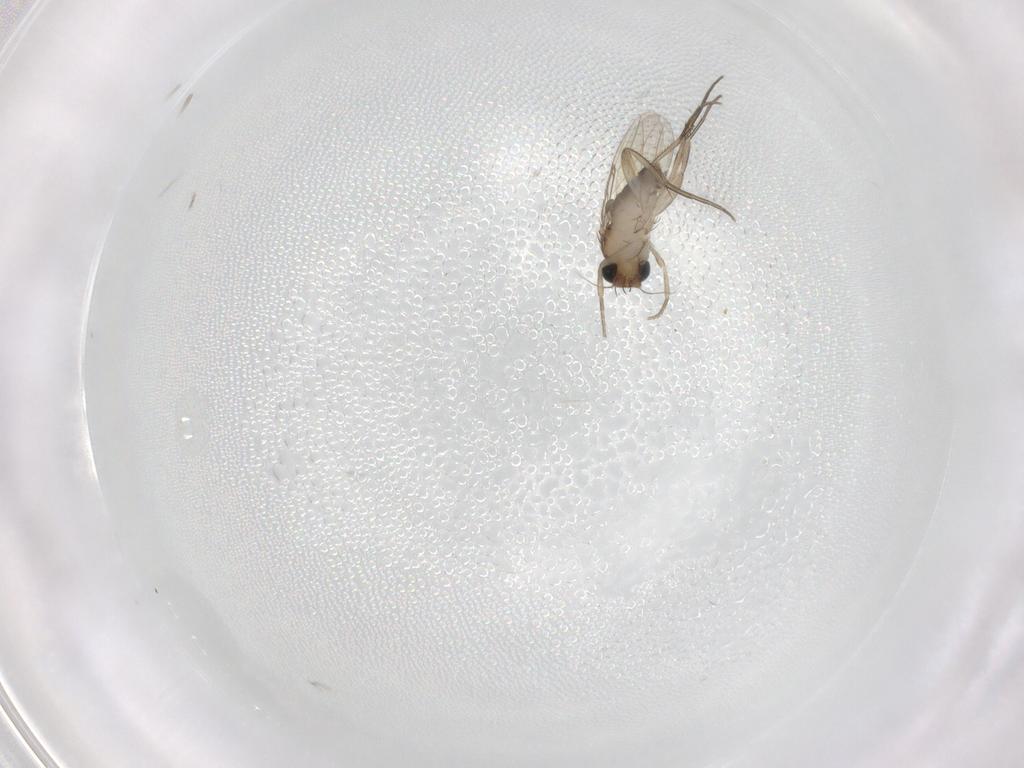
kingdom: Animalia
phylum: Arthropoda
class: Insecta
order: Diptera
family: Phoridae
